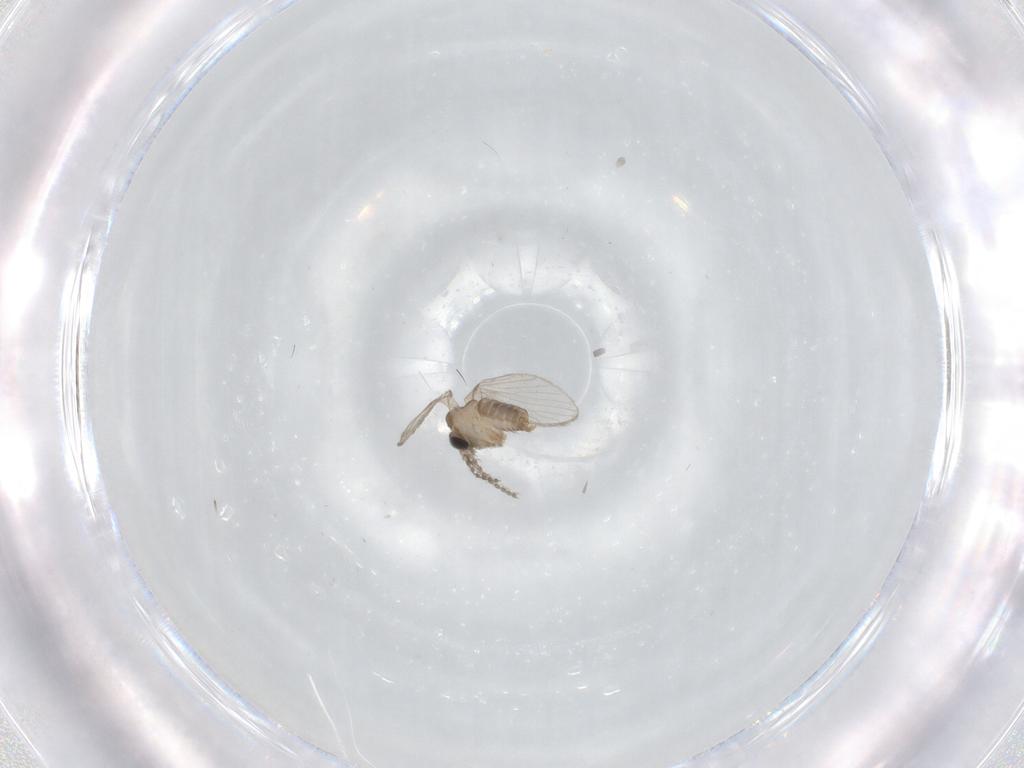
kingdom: Animalia
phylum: Arthropoda
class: Insecta
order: Diptera
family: Psychodidae
